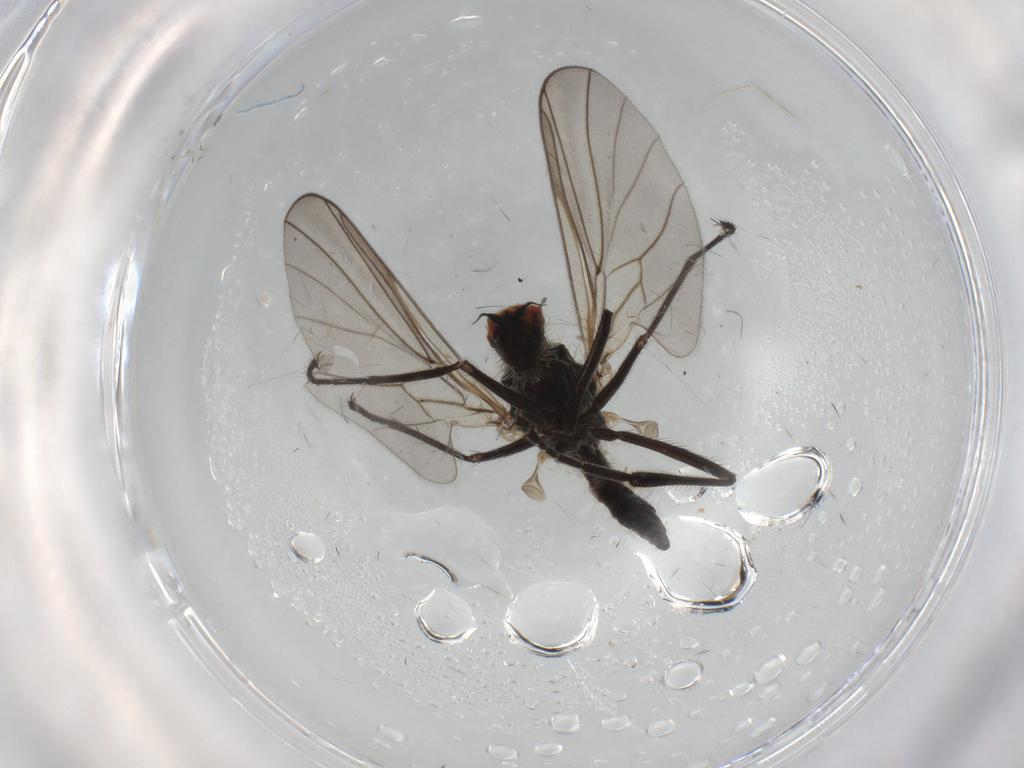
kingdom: Animalia
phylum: Arthropoda
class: Insecta
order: Diptera
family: Hybotidae
